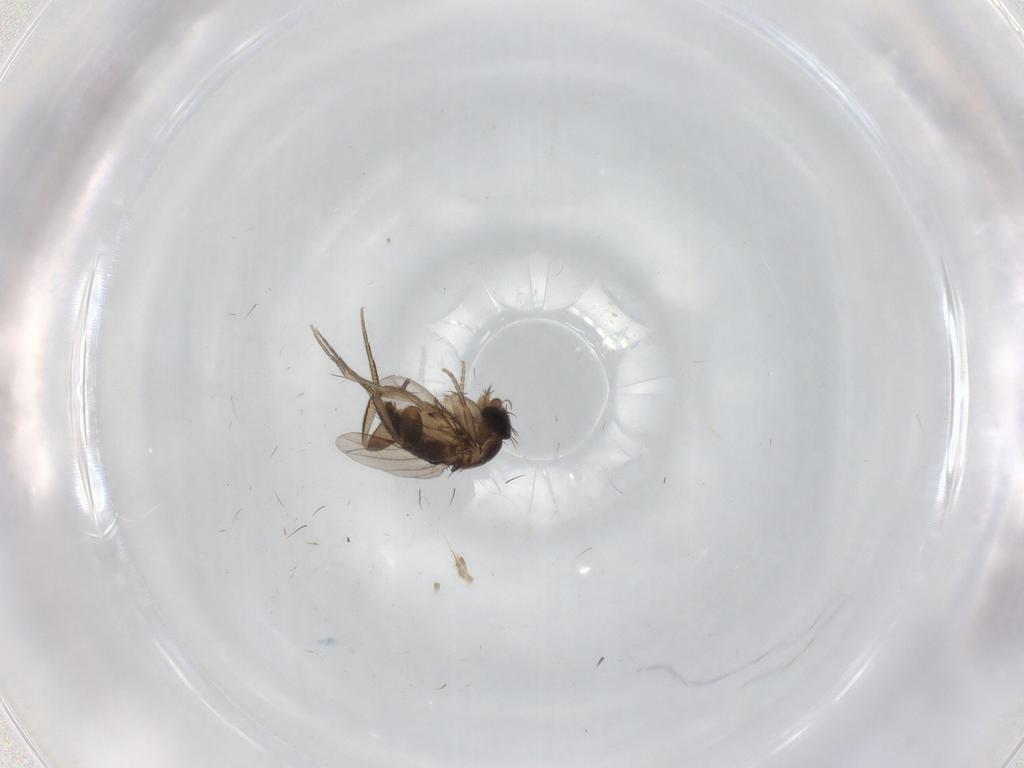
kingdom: Animalia
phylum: Arthropoda
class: Insecta
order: Diptera
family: Phoridae
